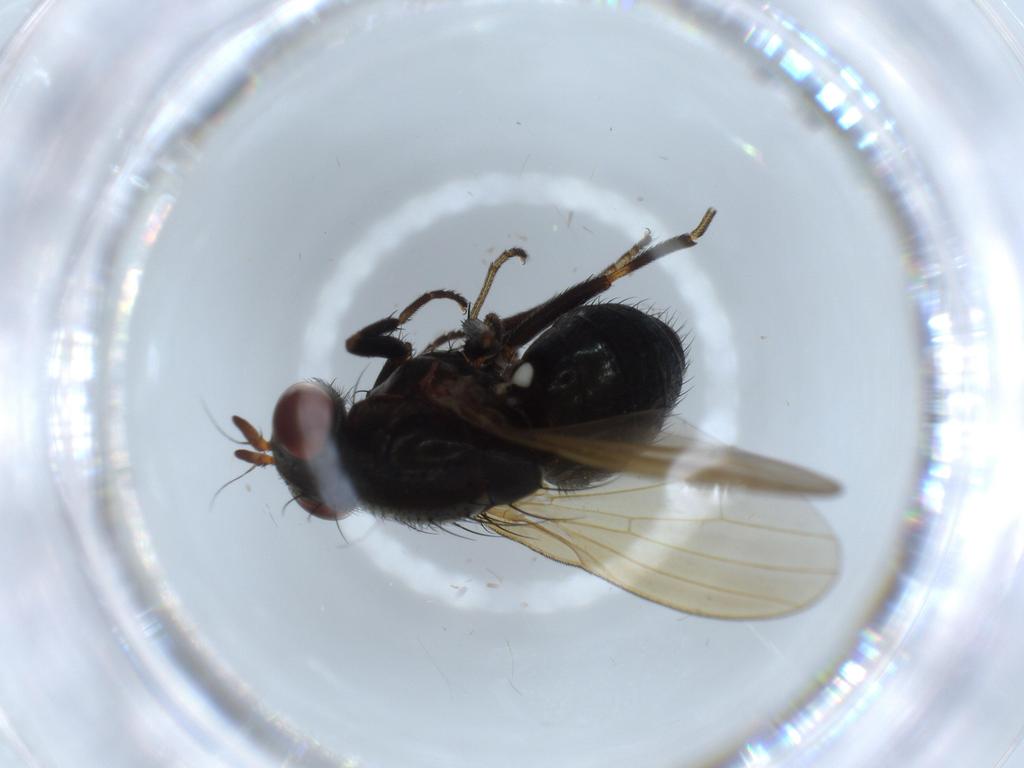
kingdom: Animalia
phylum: Arthropoda
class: Insecta
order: Diptera
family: Lauxaniidae
